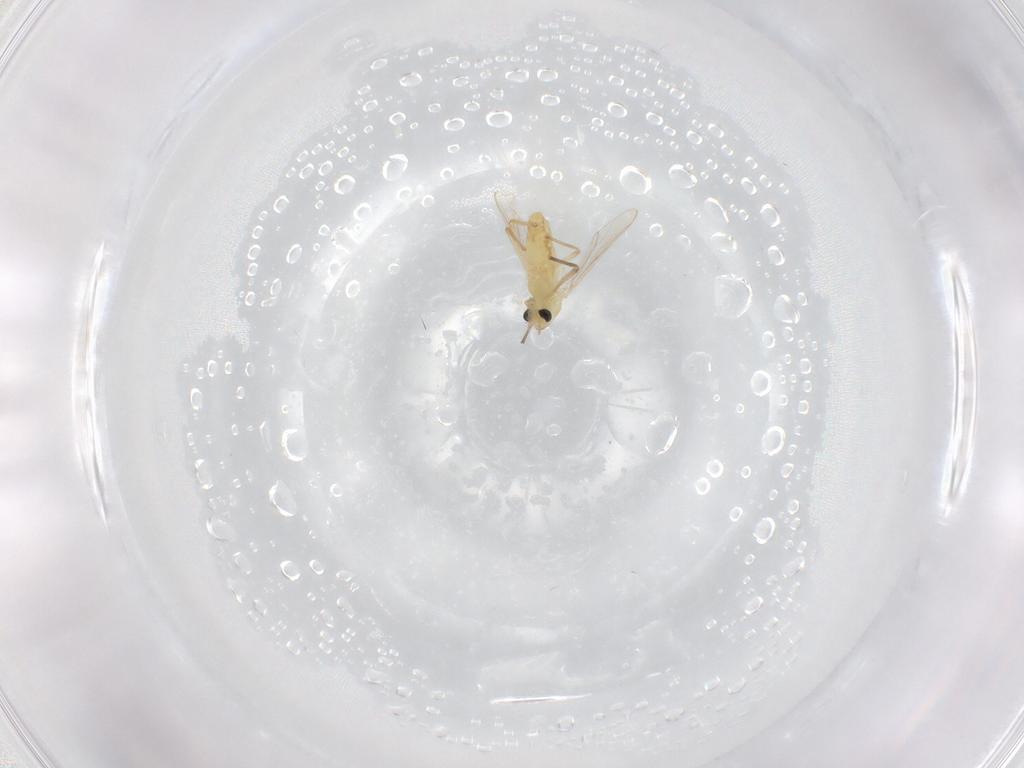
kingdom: Animalia
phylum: Arthropoda
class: Insecta
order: Diptera
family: Chironomidae
